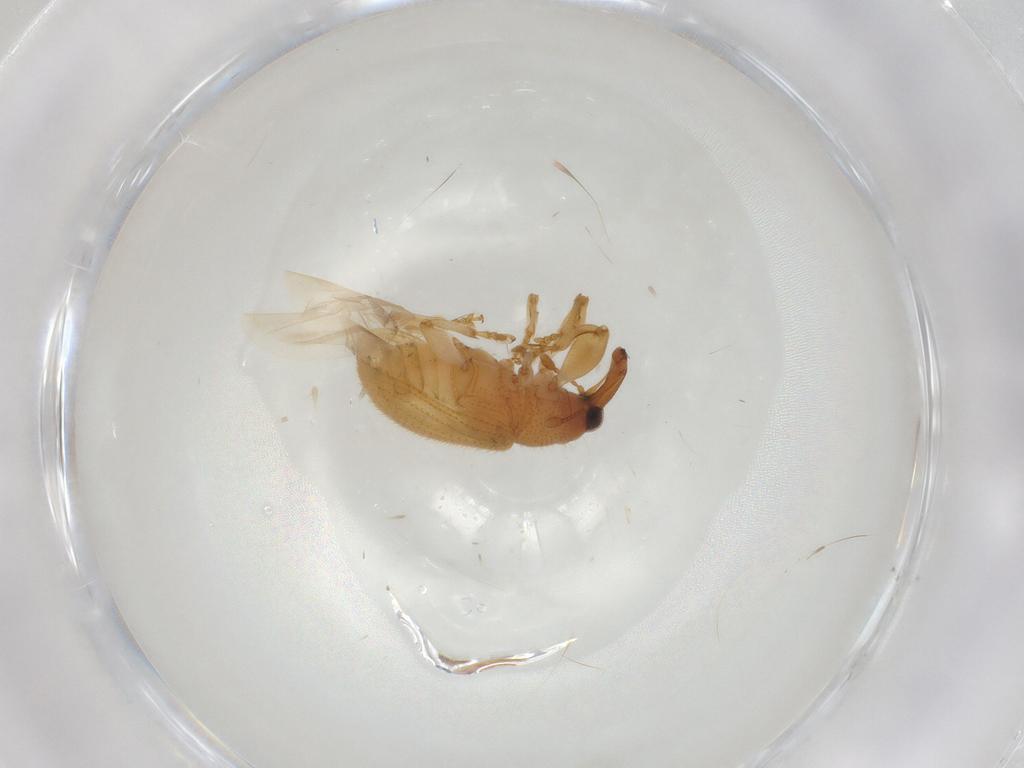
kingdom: Animalia
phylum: Arthropoda
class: Insecta
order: Coleoptera
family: Curculionidae
